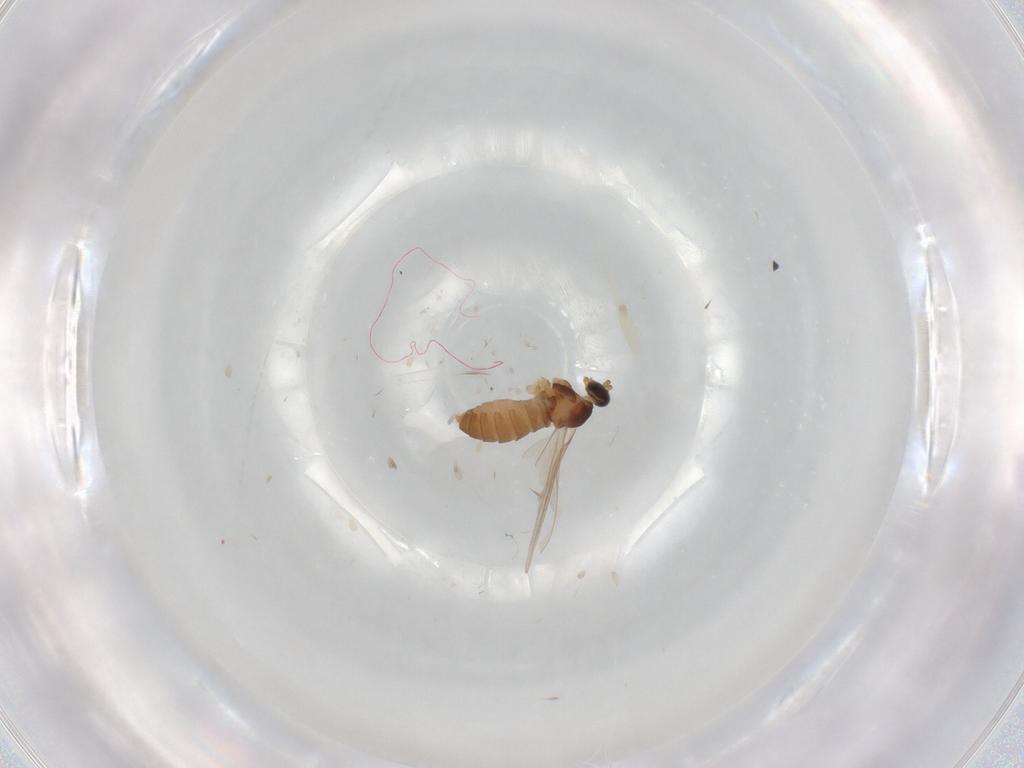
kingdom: Animalia
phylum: Arthropoda
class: Insecta
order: Diptera
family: Cecidomyiidae
